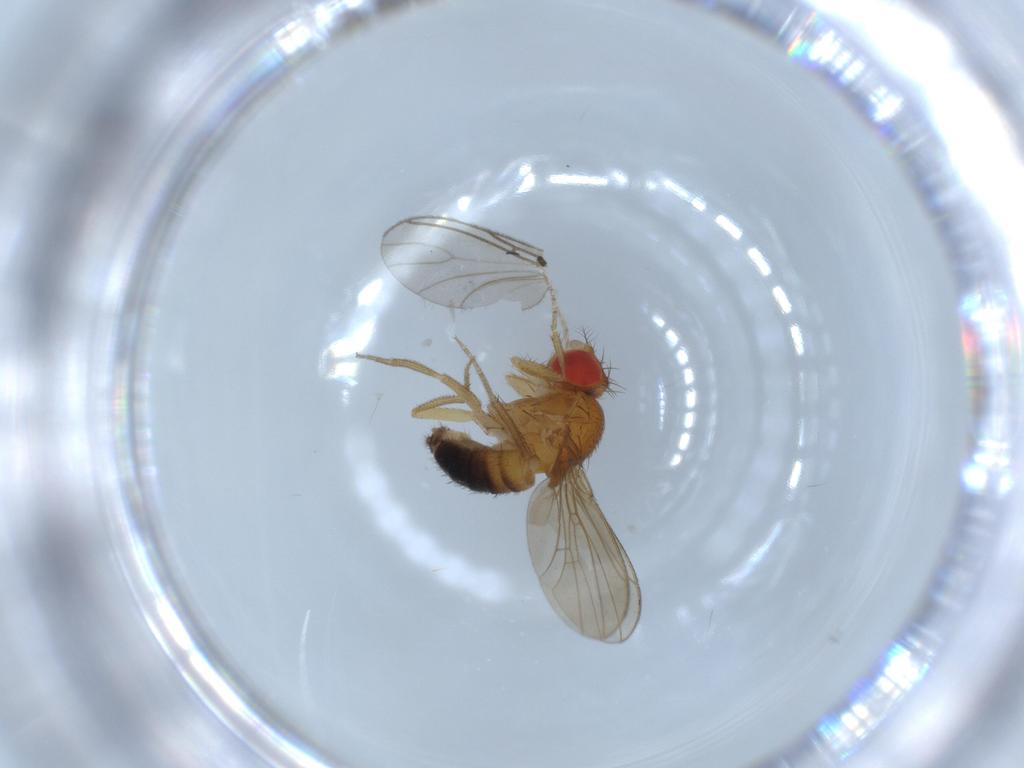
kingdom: Animalia
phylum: Arthropoda
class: Insecta
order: Diptera
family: Drosophilidae
